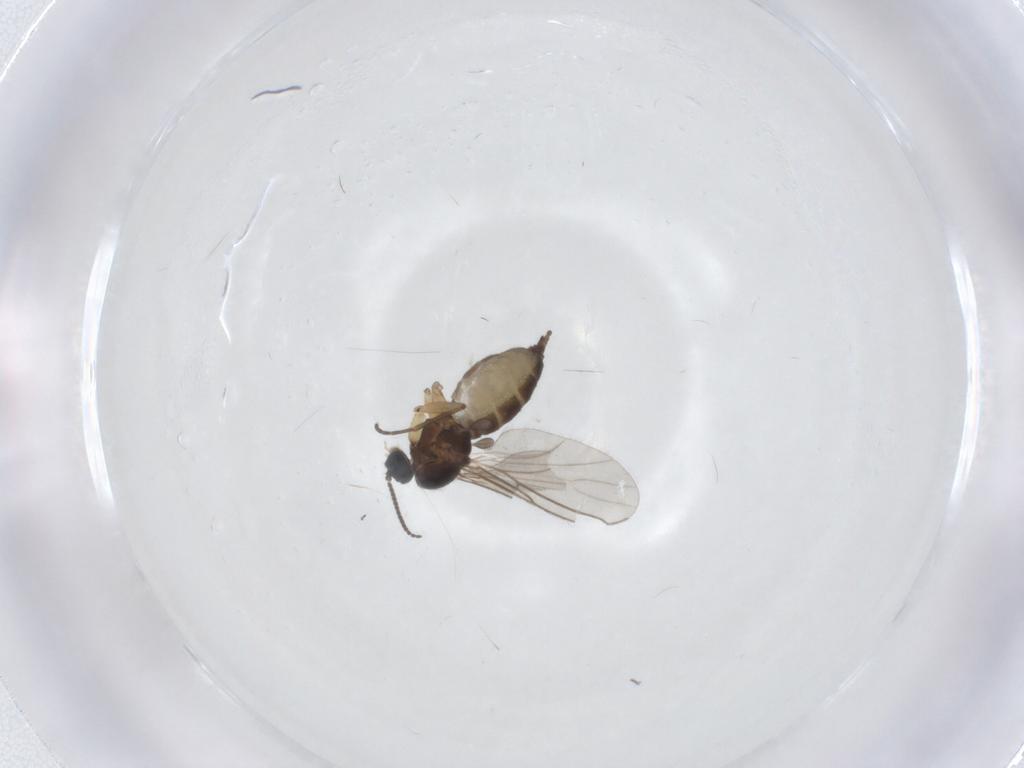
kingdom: Animalia
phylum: Arthropoda
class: Insecta
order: Diptera
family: Sciaridae
